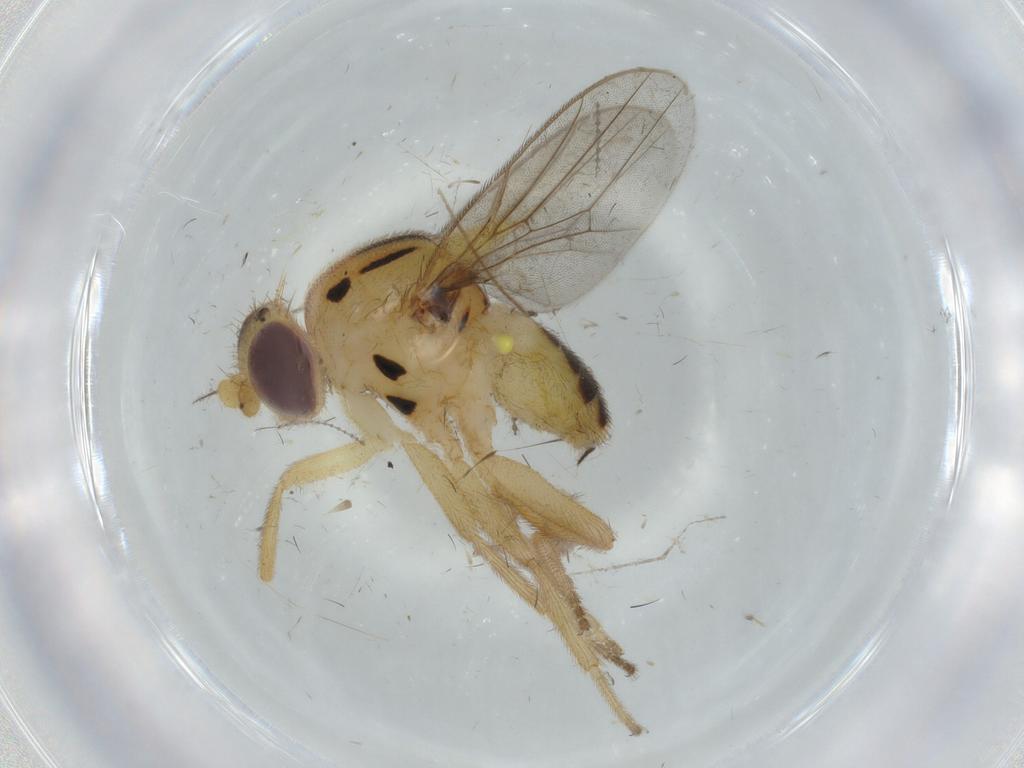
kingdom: Animalia
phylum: Arthropoda
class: Insecta
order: Diptera
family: Chloropidae
